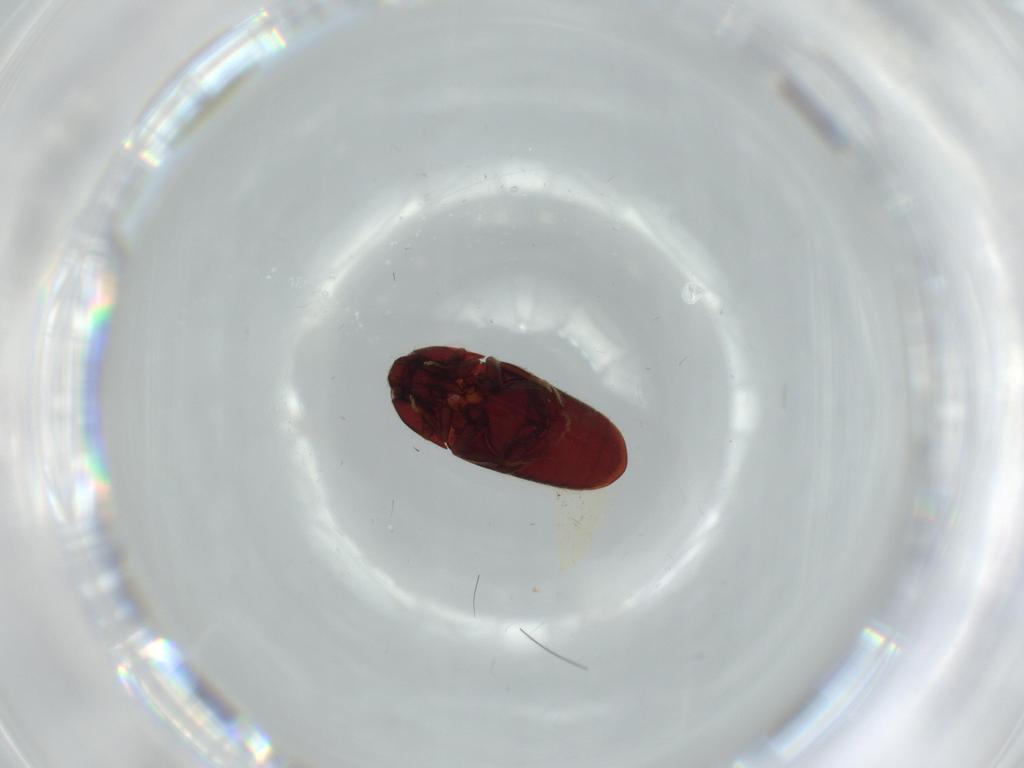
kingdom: Animalia
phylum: Arthropoda
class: Insecta
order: Coleoptera
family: Throscidae
